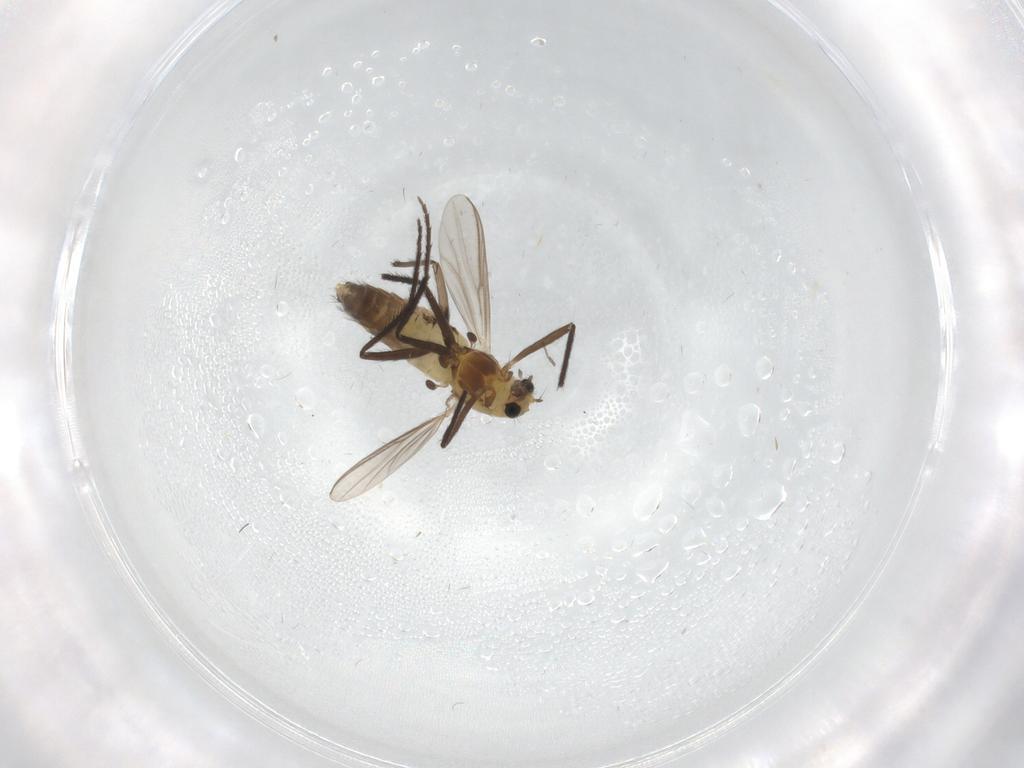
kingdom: Animalia
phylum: Arthropoda
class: Insecta
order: Diptera
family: Chironomidae
